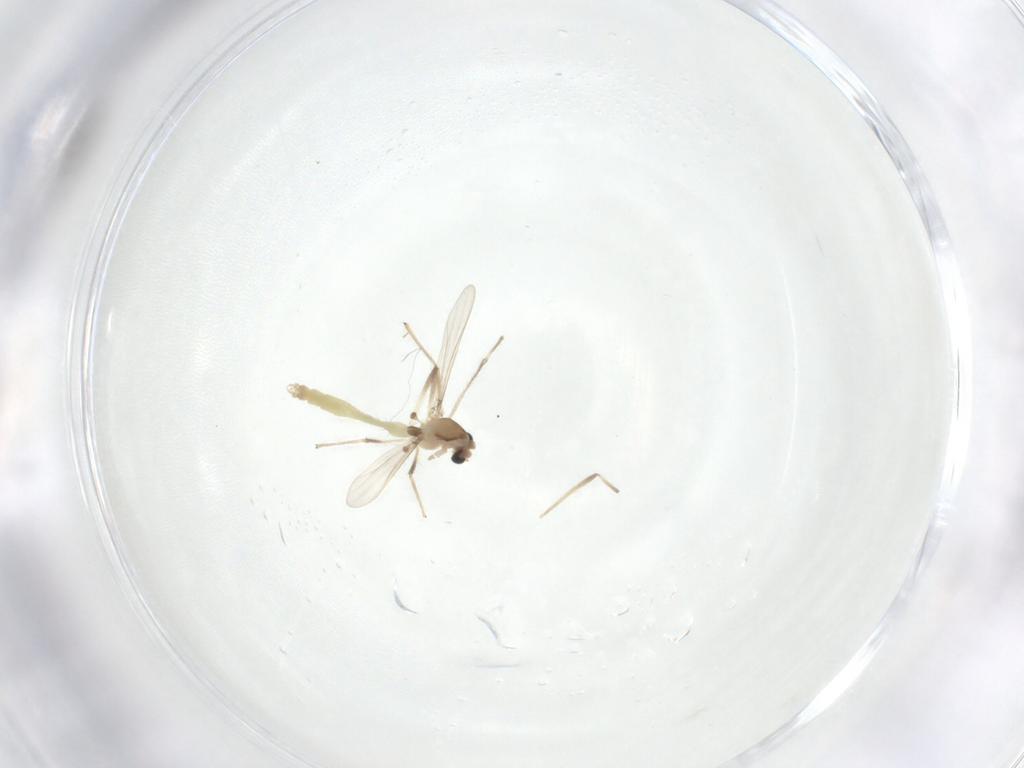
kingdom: Animalia
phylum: Arthropoda
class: Insecta
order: Diptera
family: Chironomidae
